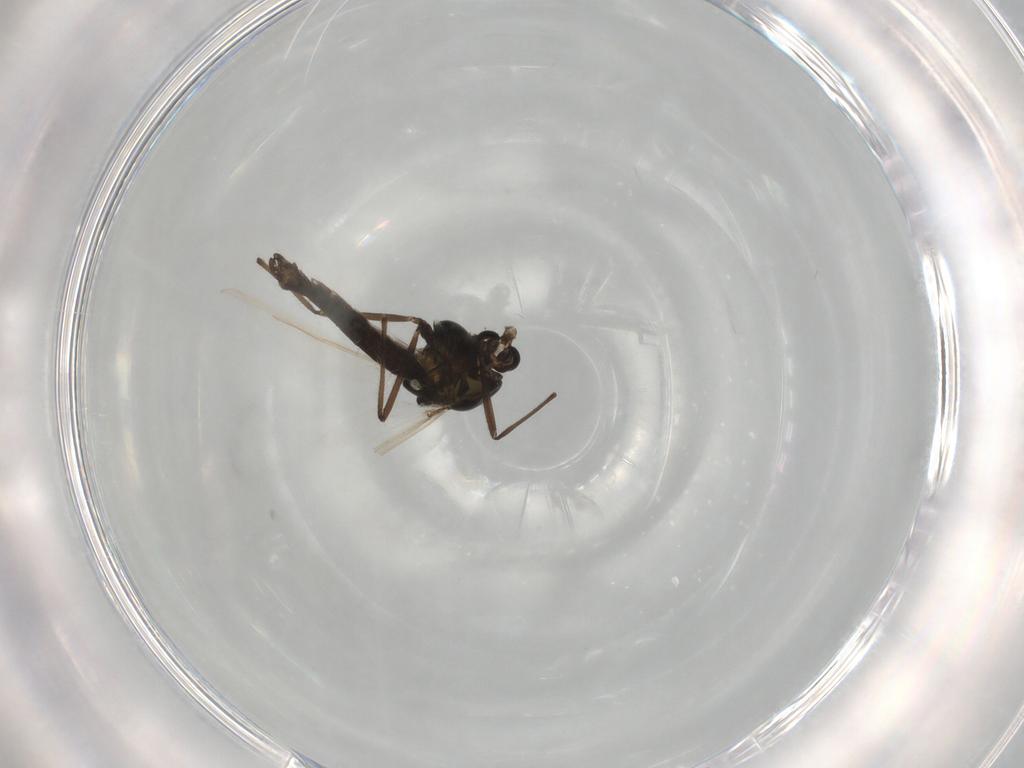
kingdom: Animalia
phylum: Arthropoda
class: Insecta
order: Diptera
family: Chironomidae
